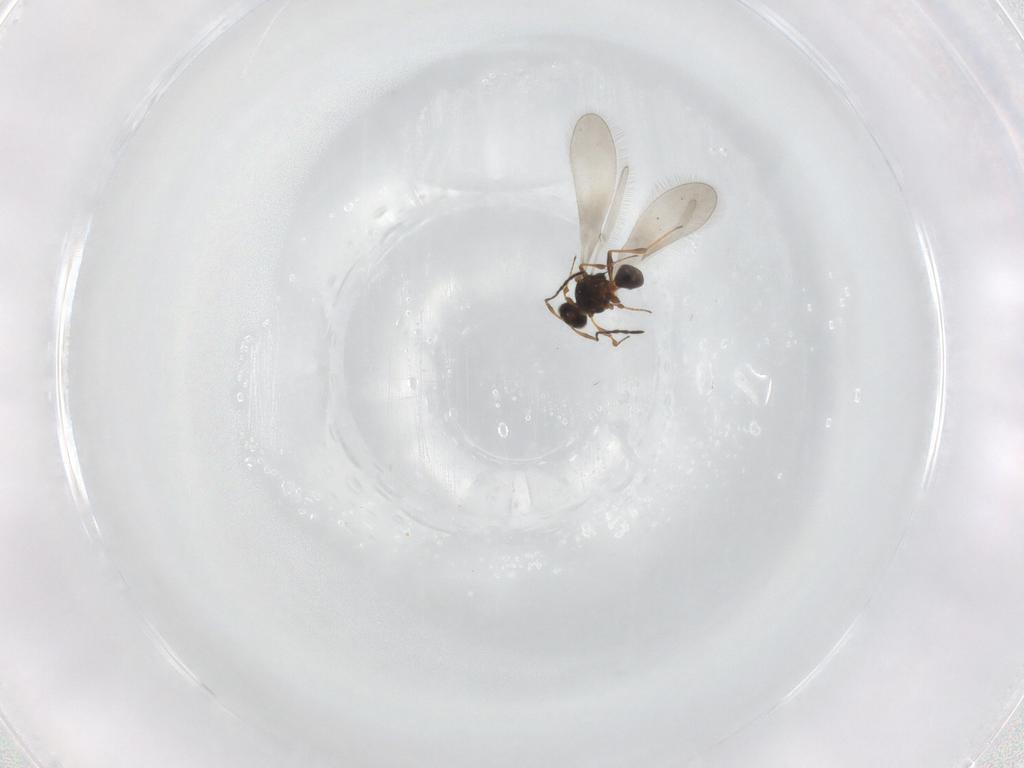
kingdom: Animalia
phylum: Arthropoda
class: Insecta
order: Hymenoptera
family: Platygastridae
